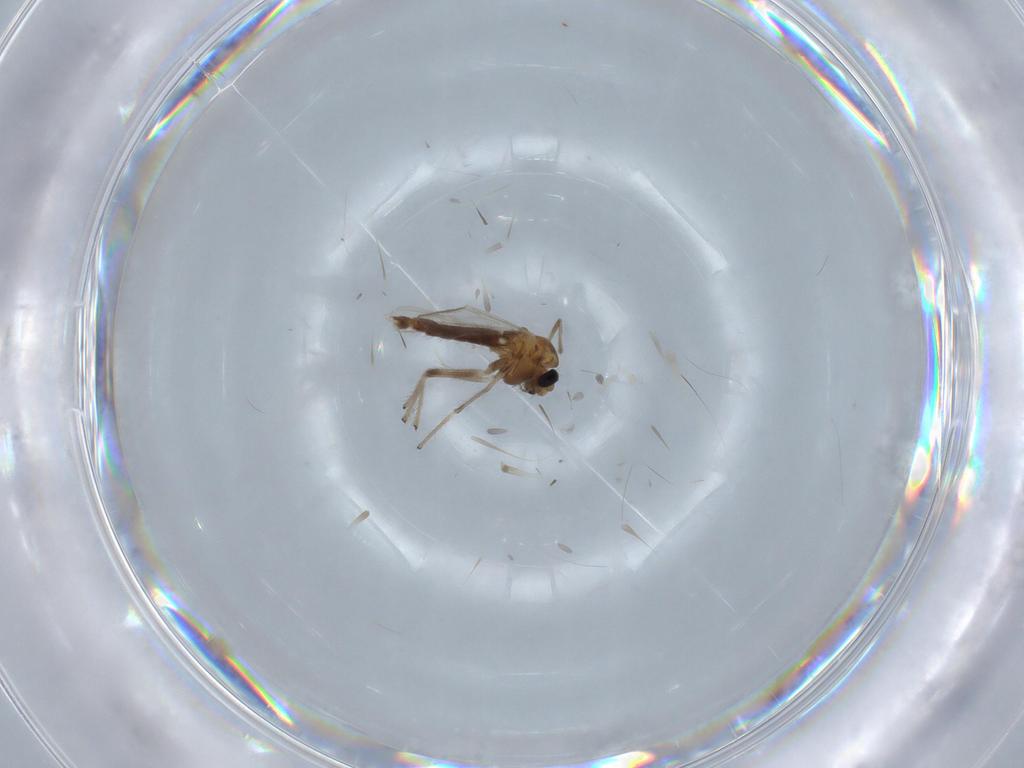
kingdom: Animalia
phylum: Arthropoda
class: Insecta
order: Diptera
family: Chironomidae
